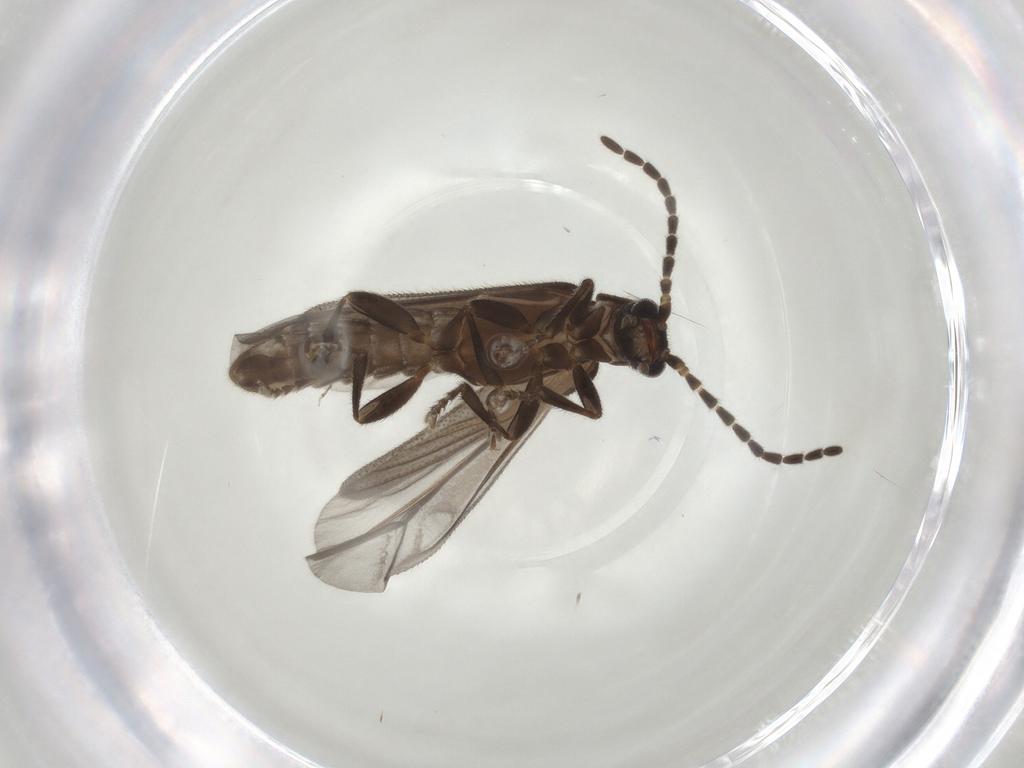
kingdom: Animalia
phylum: Arthropoda
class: Insecta
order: Coleoptera
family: Cantharidae
